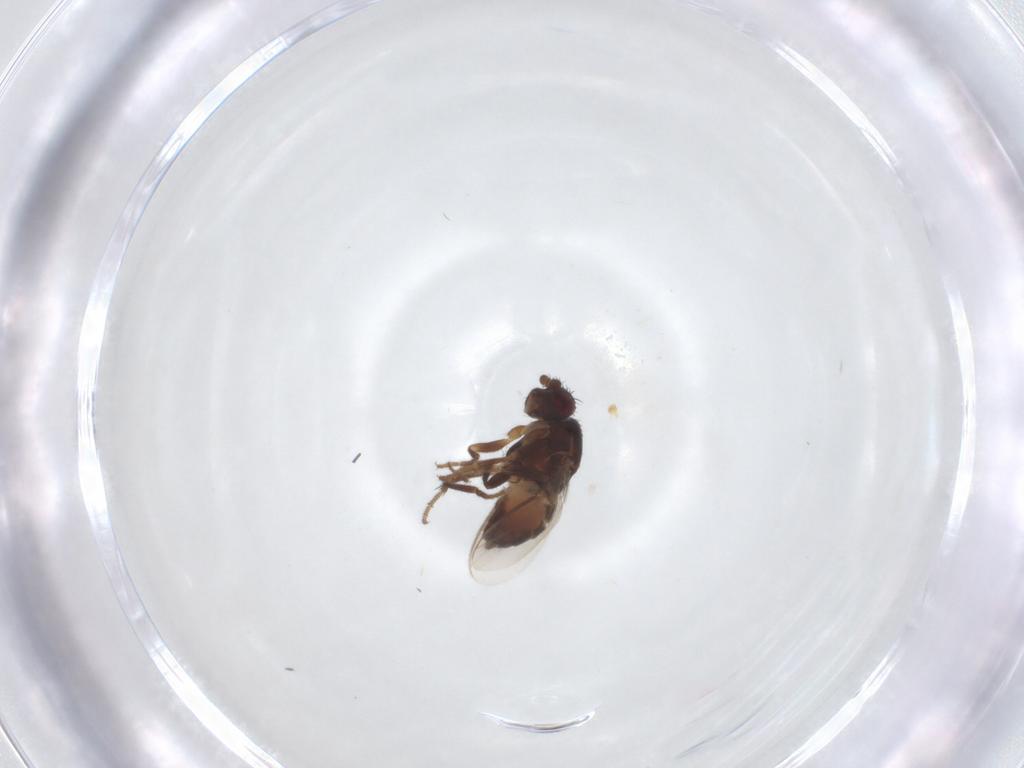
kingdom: Animalia
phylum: Arthropoda
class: Insecta
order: Diptera
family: Sphaeroceridae
